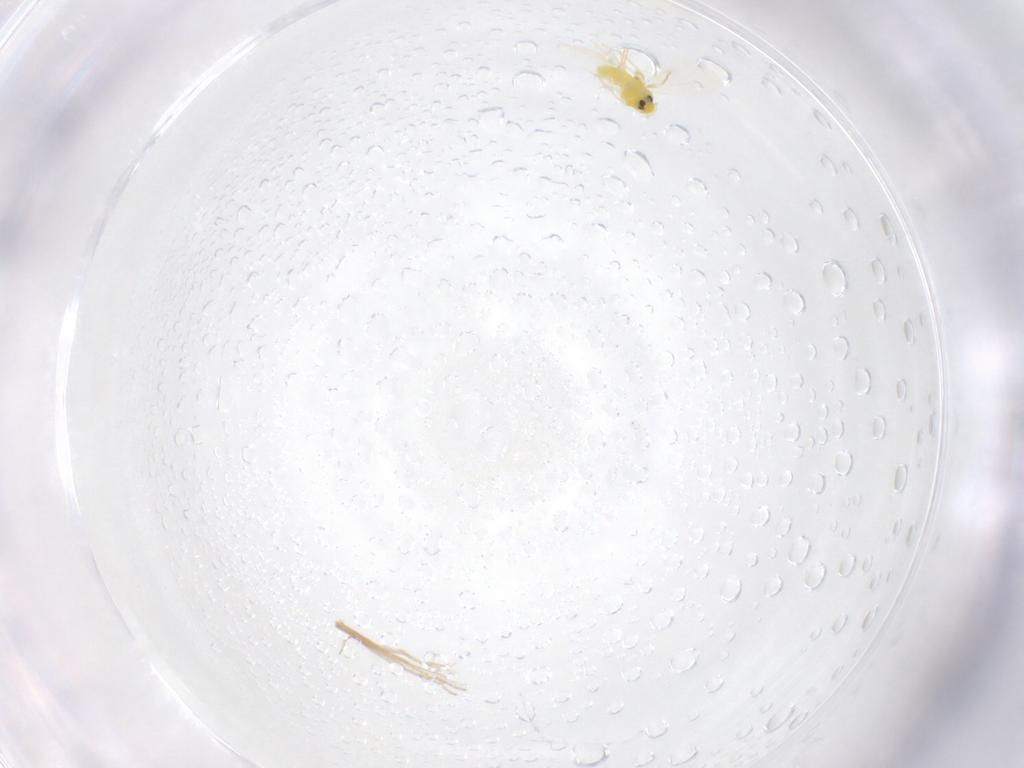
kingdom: Animalia
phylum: Arthropoda
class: Insecta
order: Hemiptera
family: Aleyrodidae
